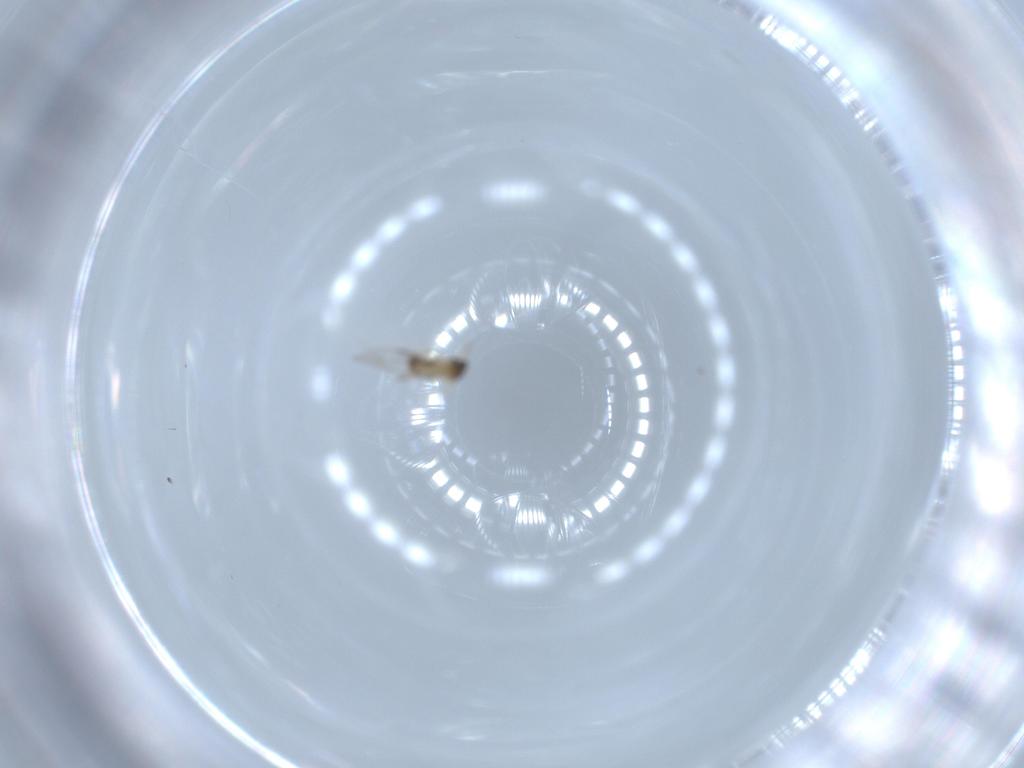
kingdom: Animalia
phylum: Arthropoda
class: Insecta
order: Diptera
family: Cecidomyiidae
